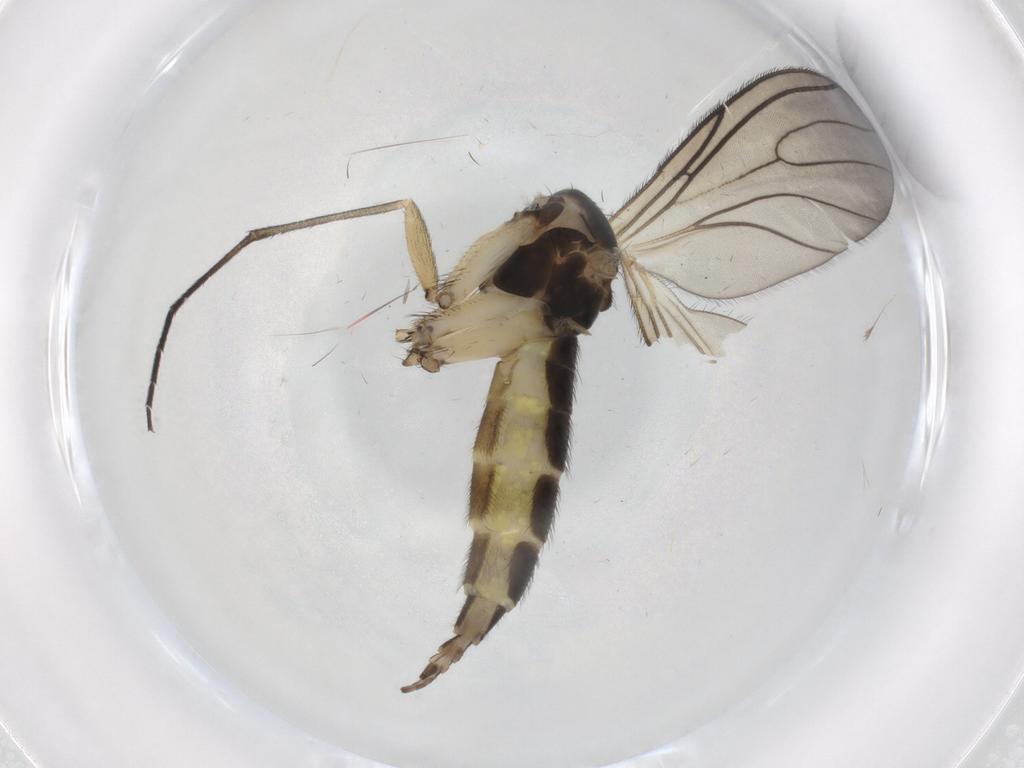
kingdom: Animalia
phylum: Arthropoda
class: Insecta
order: Diptera
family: Sciaridae
